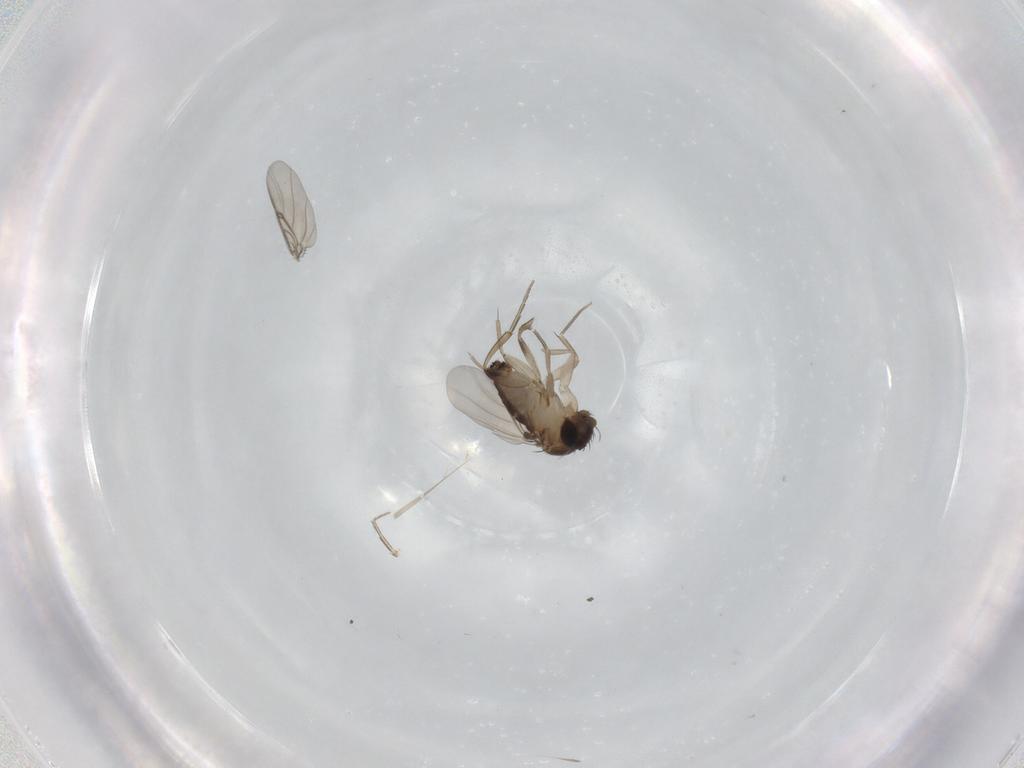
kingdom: Animalia
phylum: Arthropoda
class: Insecta
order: Diptera
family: Phoridae
